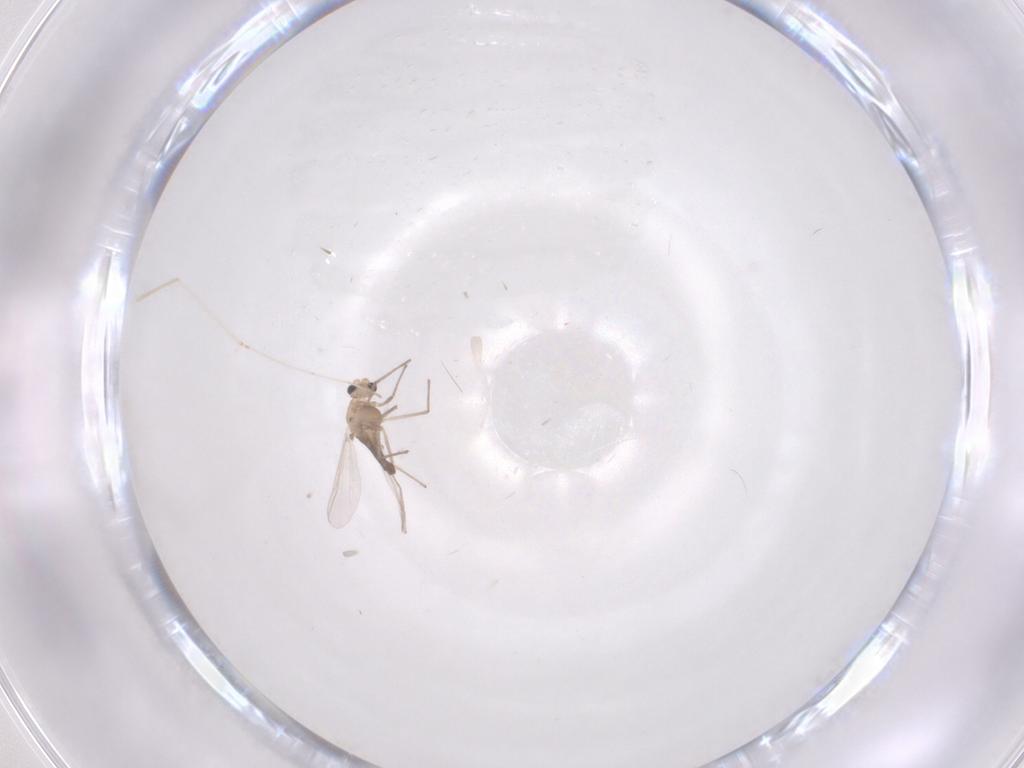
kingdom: Animalia
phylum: Arthropoda
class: Insecta
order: Diptera
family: Chironomidae
